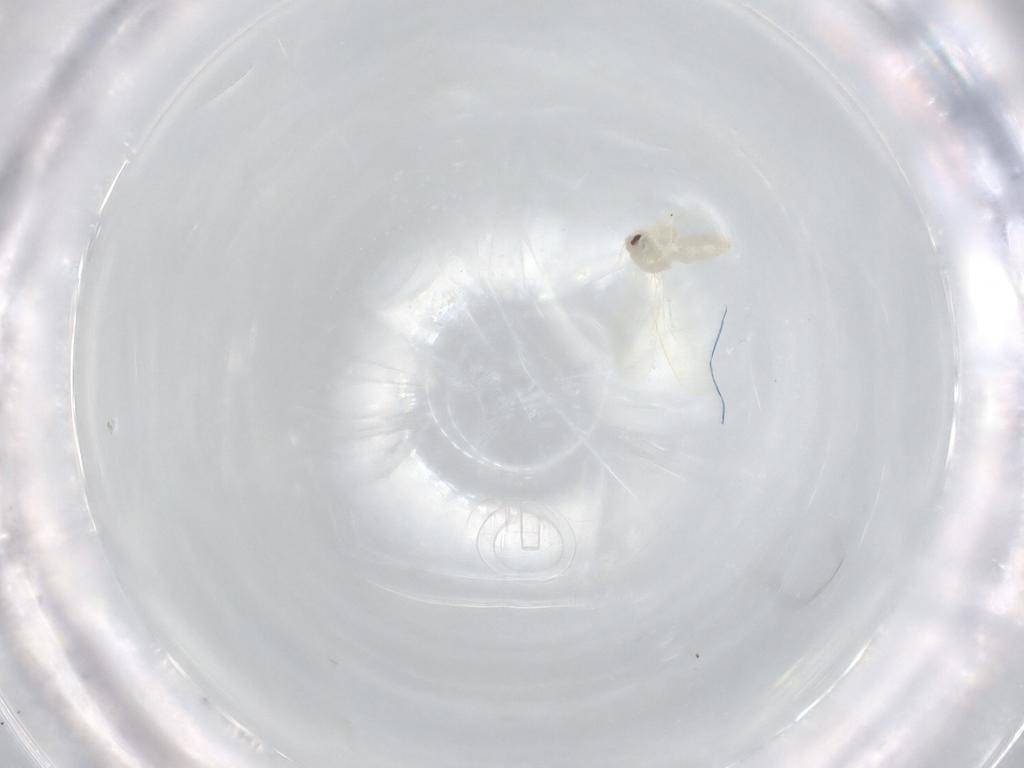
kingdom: Animalia
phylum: Arthropoda
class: Insecta
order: Hemiptera
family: Aleyrodidae
